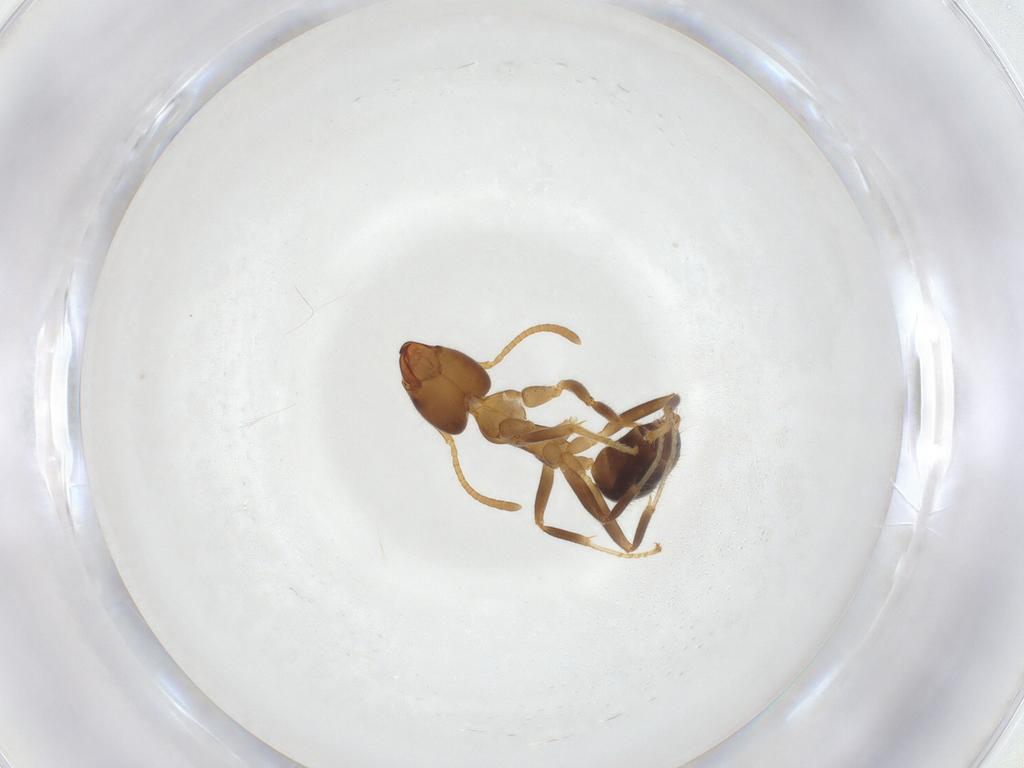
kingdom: Animalia
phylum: Arthropoda
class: Insecta
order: Hymenoptera
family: Formicidae
